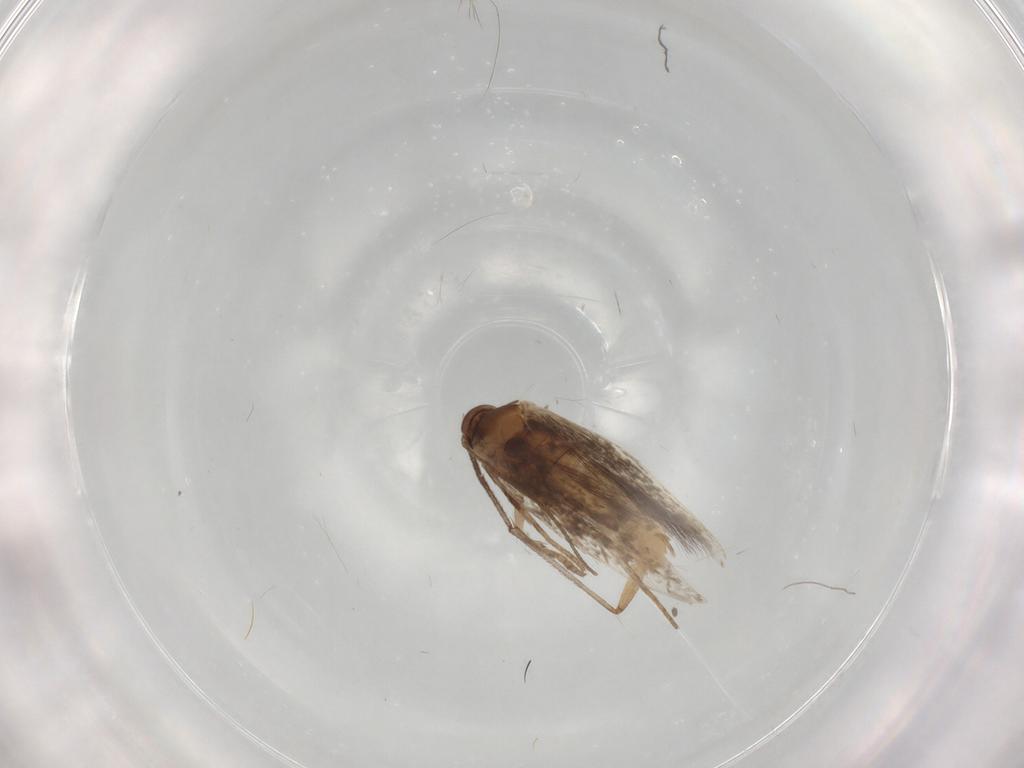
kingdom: Animalia
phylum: Arthropoda
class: Insecta
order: Lepidoptera
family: Elachistidae
